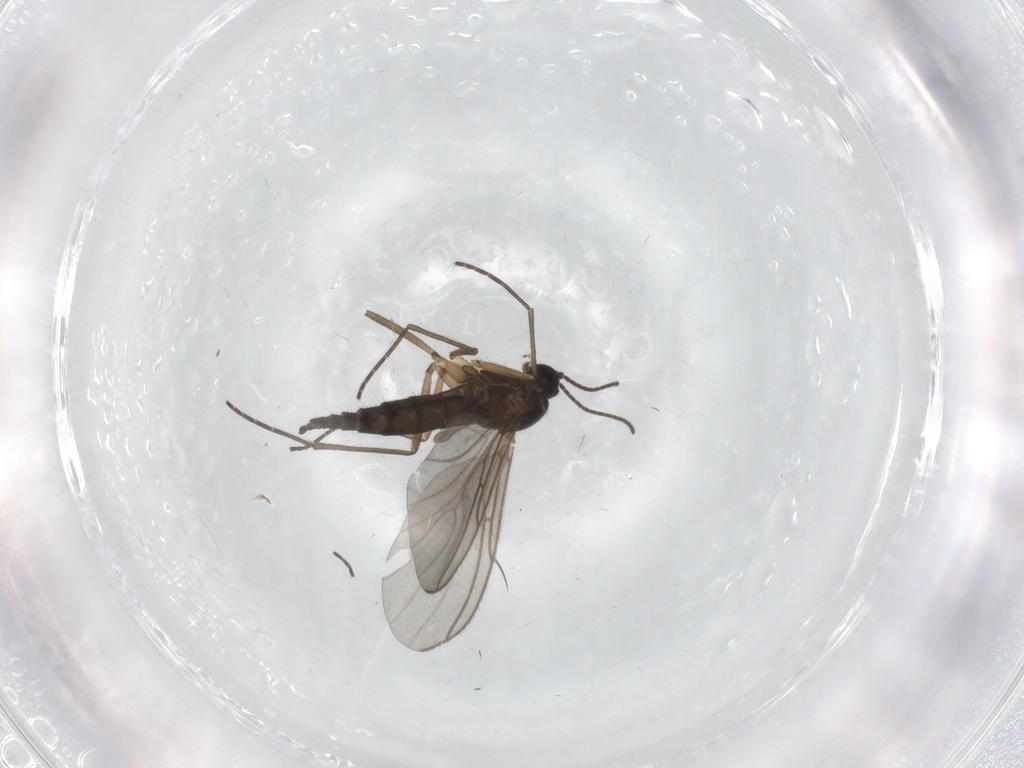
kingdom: Animalia
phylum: Arthropoda
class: Insecta
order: Diptera
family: Sciaridae
